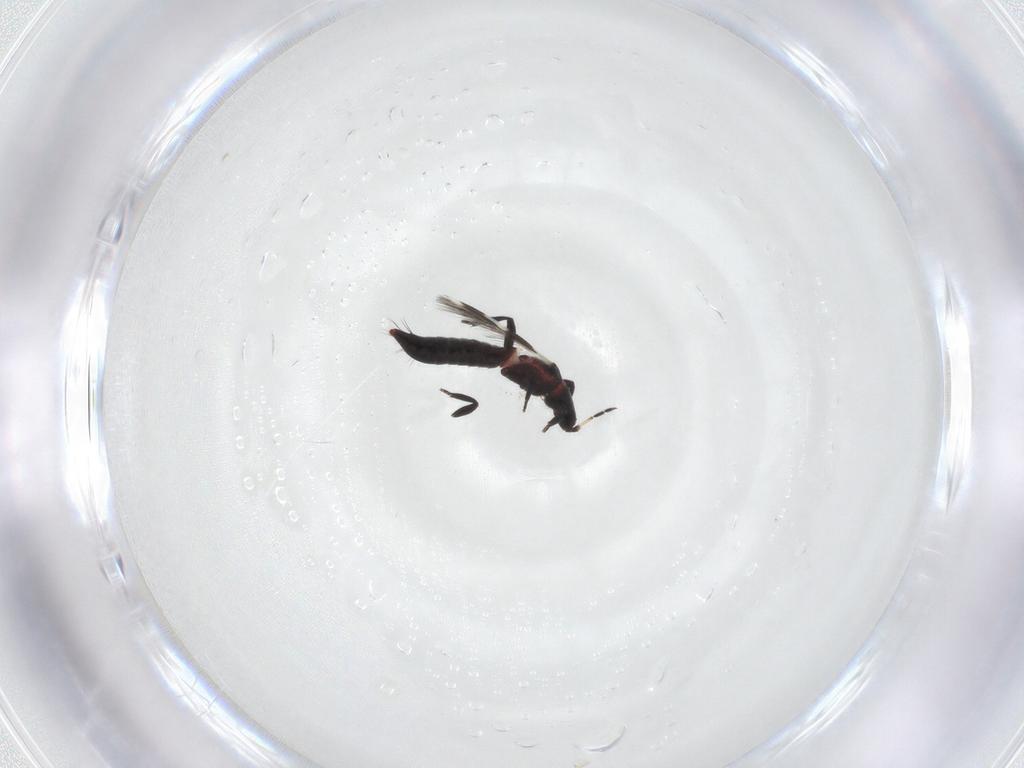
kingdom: Animalia
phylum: Arthropoda
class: Insecta
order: Thysanoptera
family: Aeolothripidae
